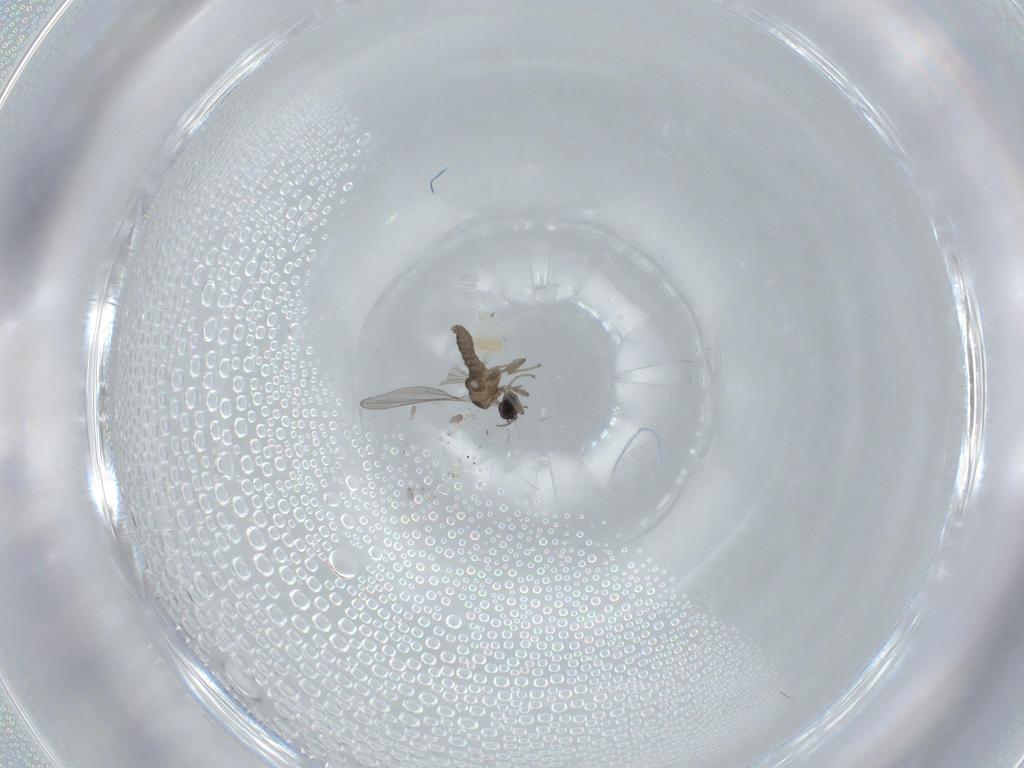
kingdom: Animalia
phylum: Arthropoda
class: Insecta
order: Diptera
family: Cecidomyiidae
